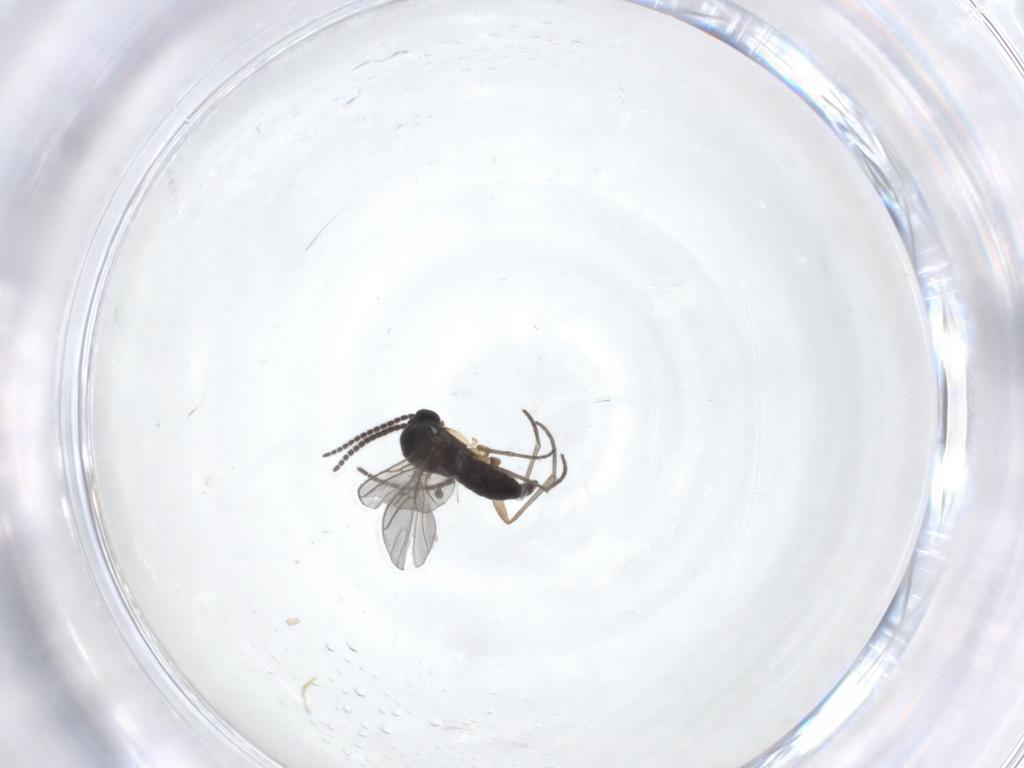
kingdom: Animalia
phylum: Arthropoda
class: Insecta
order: Diptera
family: Sciaridae
